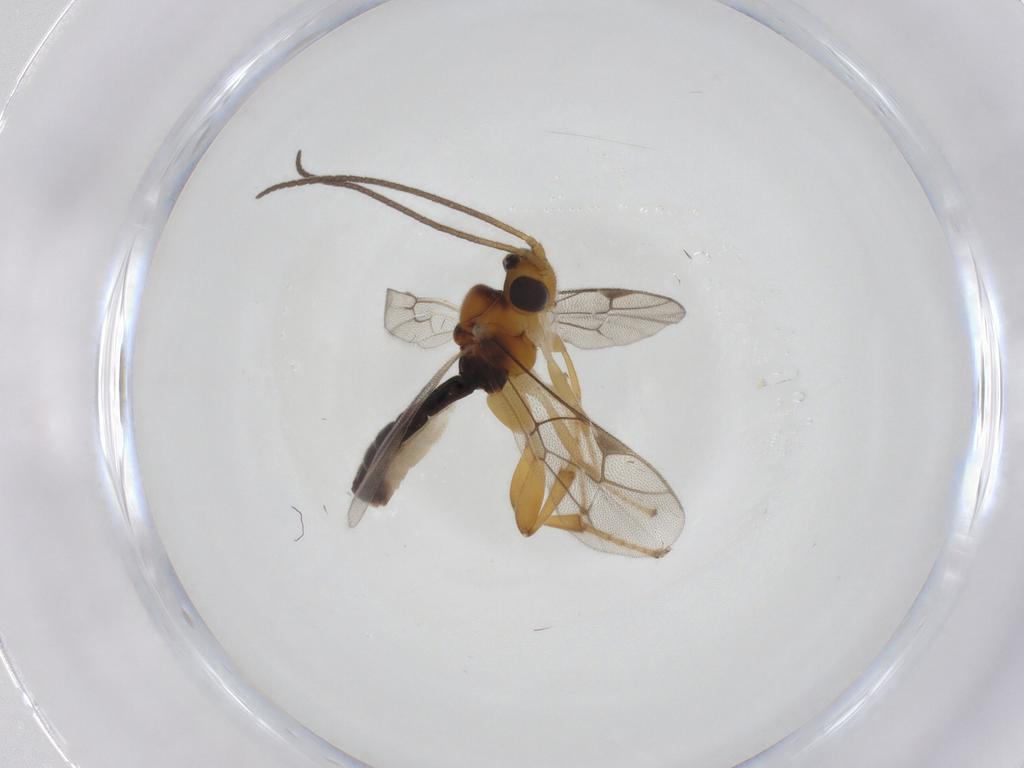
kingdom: Animalia
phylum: Arthropoda
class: Insecta
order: Hymenoptera
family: Ichneumonidae
